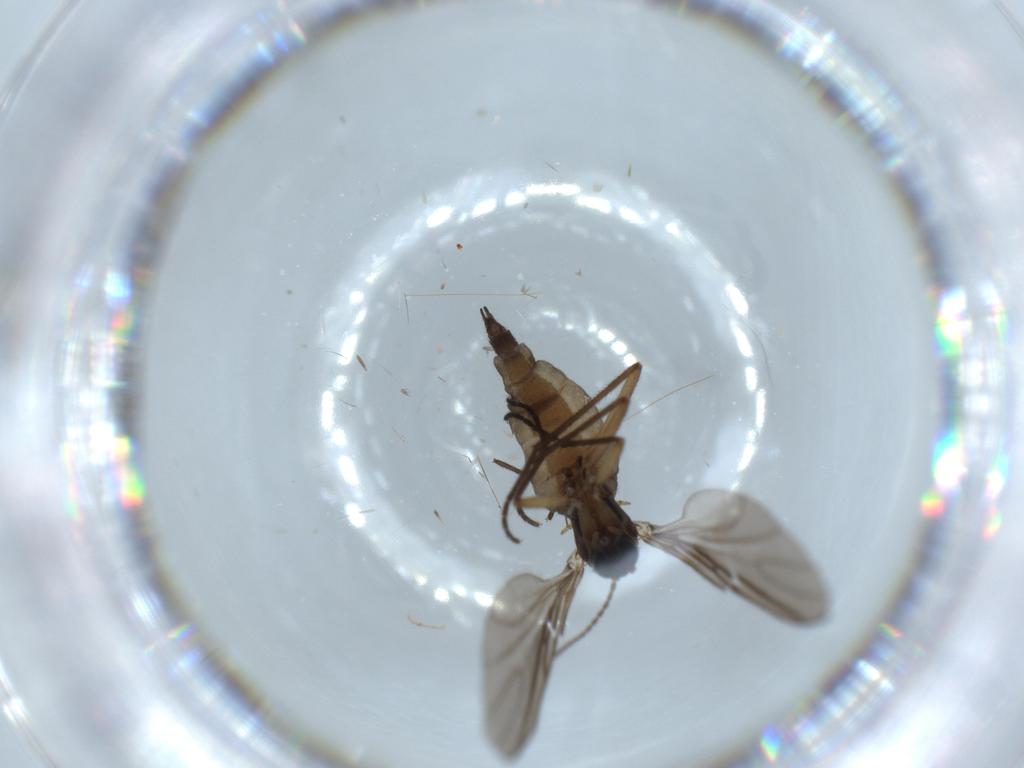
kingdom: Animalia
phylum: Arthropoda
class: Insecta
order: Diptera
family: Sciaridae
